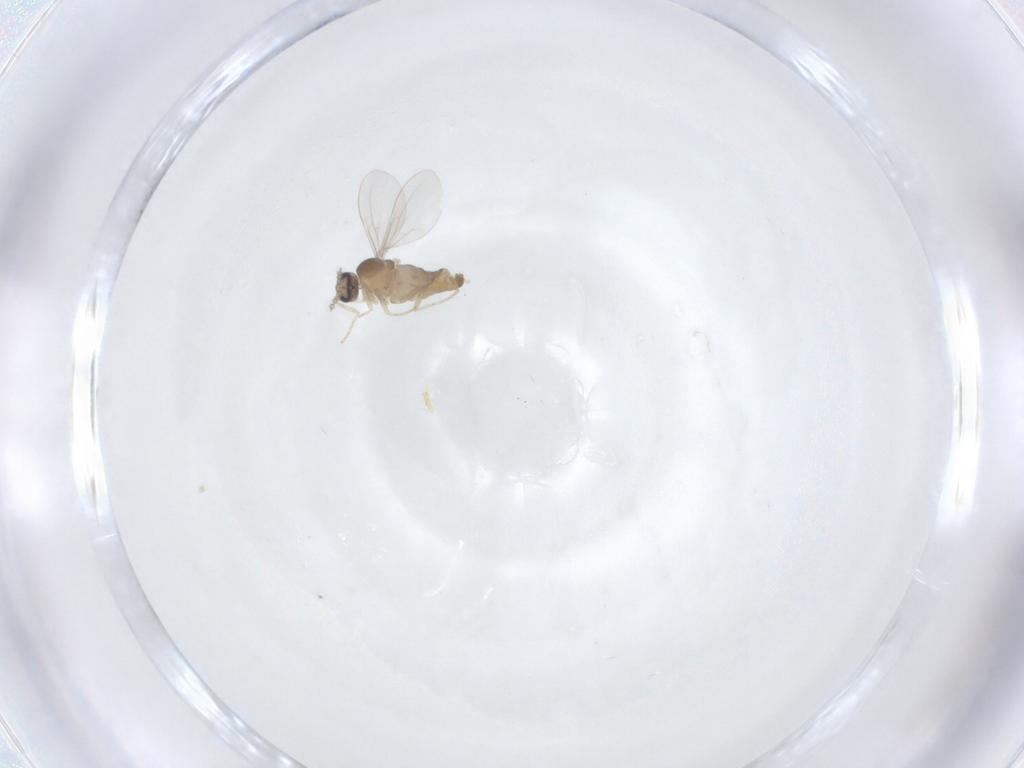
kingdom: Animalia
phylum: Arthropoda
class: Insecta
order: Diptera
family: Cecidomyiidae
